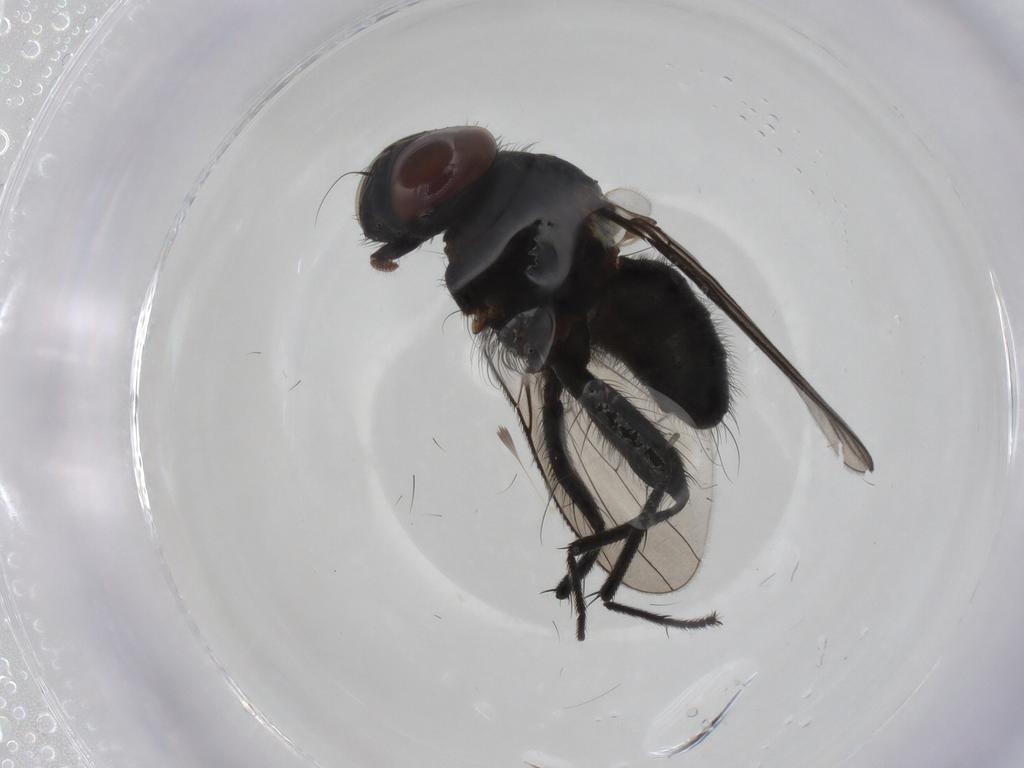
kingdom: Animalia
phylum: Arthropoda
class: Insecta
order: Diptera
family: Muscidae
